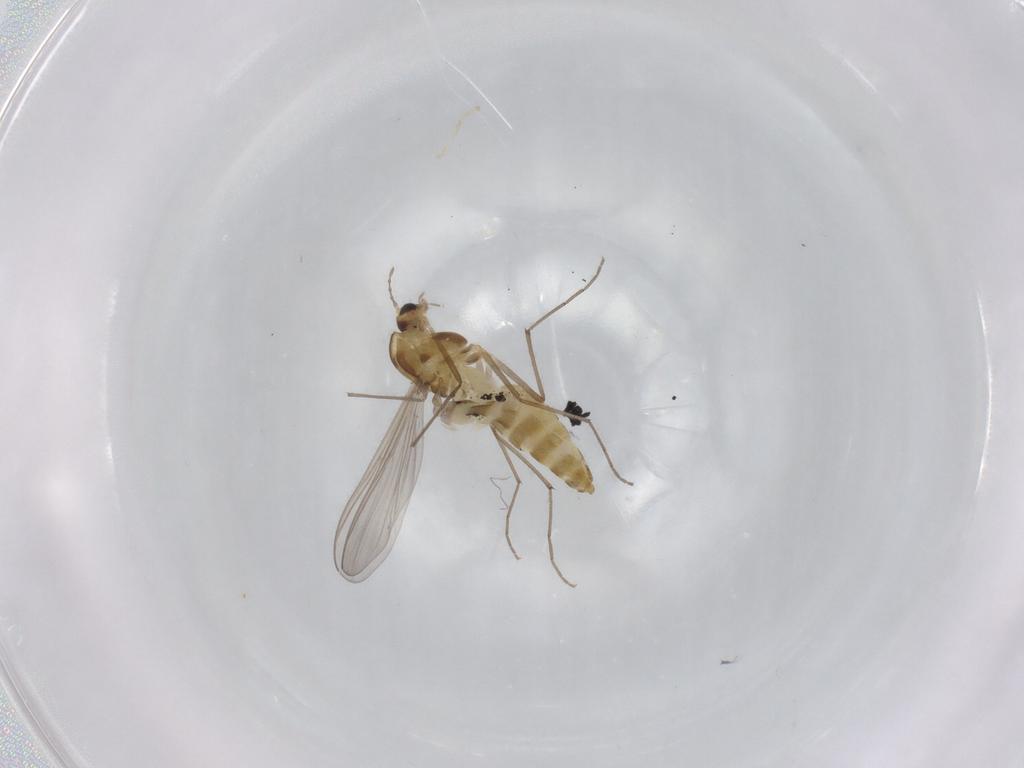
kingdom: Animalia
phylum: Arthropoda
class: Insecta
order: Diptera
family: Chironomidae
